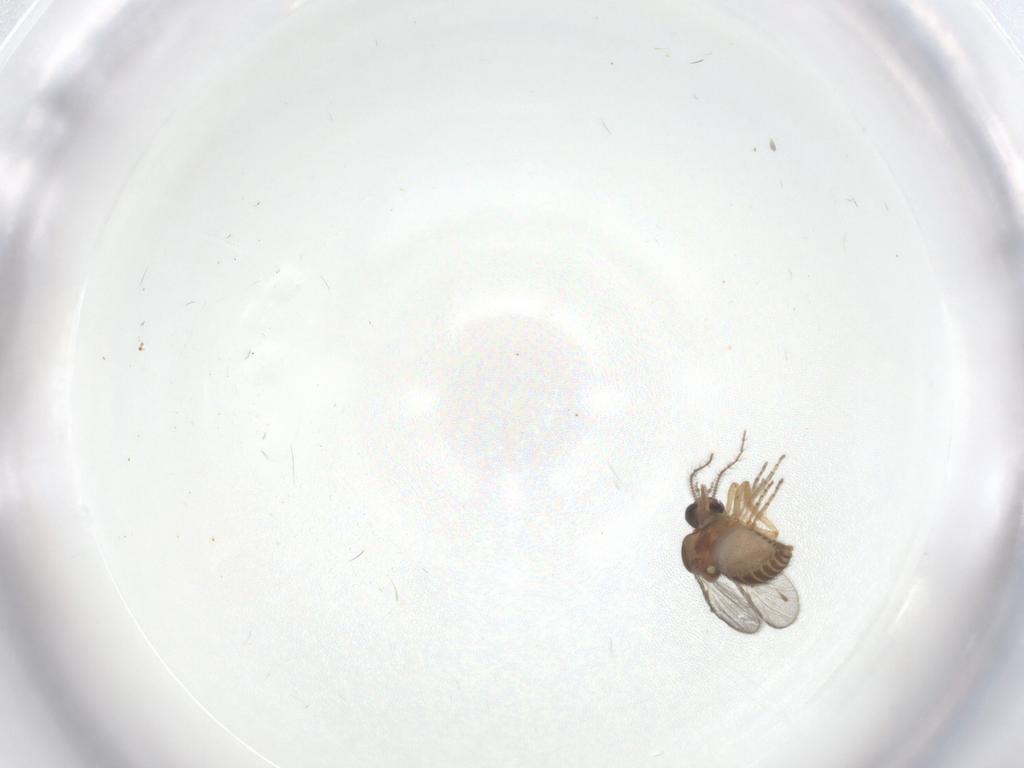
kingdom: Animalia
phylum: Arthropoda
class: Insecta
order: Diptera
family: Ceratopogonidae
